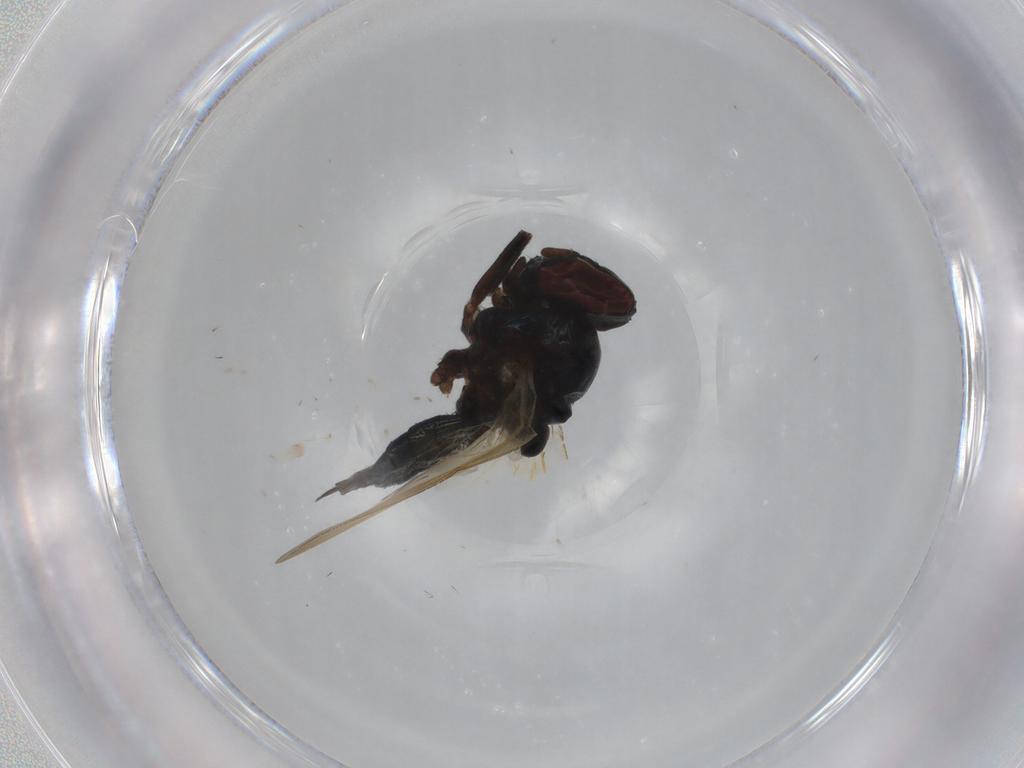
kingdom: Animalia
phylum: Arthropoda
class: Insecta
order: Diptera
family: Lonchaeidae
